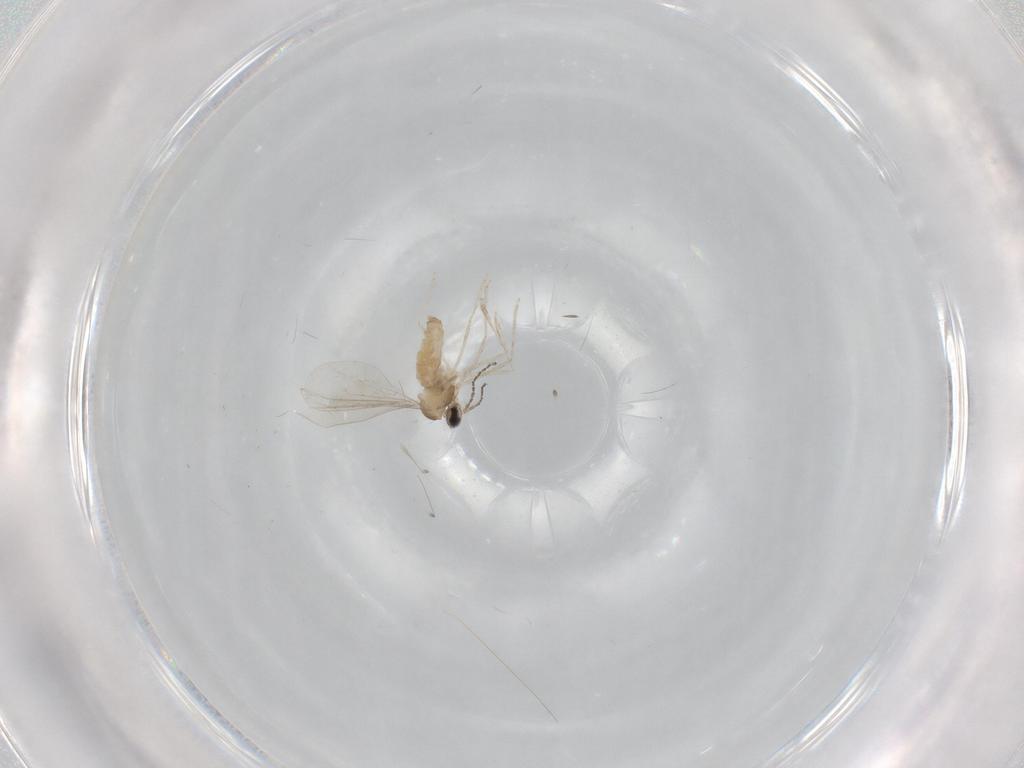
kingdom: Animalia
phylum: Arthropoda
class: Insecta
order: Diptera
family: Cecidomyiidae
